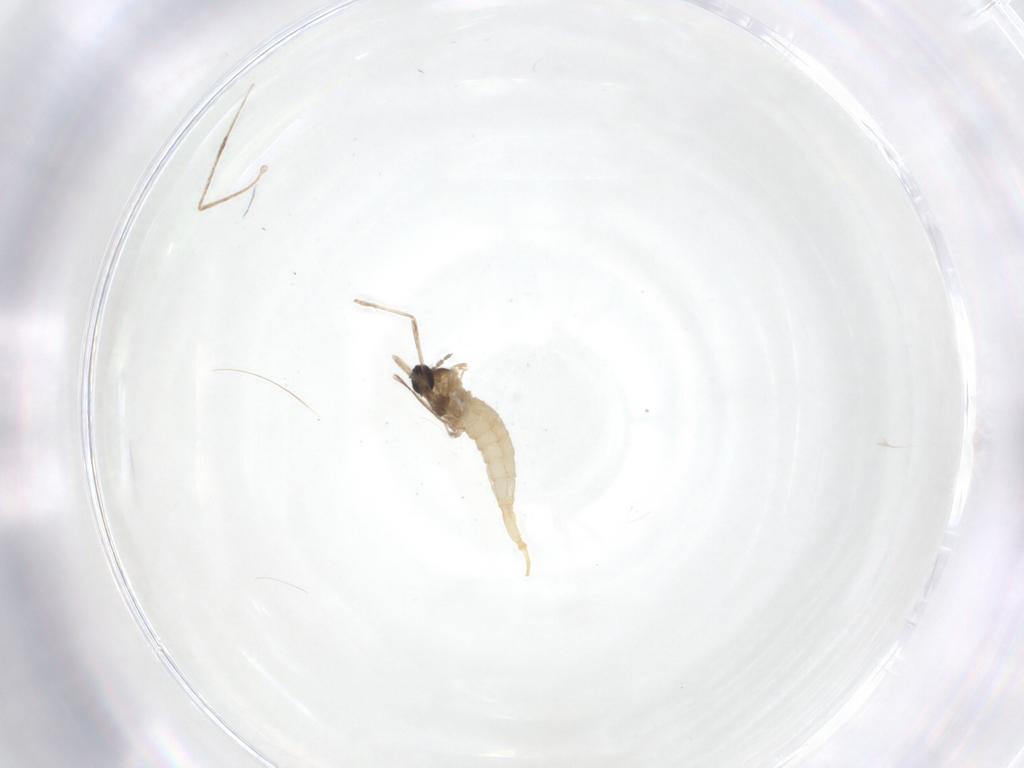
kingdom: Animalia
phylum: Arthropoda
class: Insecta
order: Diptera
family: Cecidomyiidae
